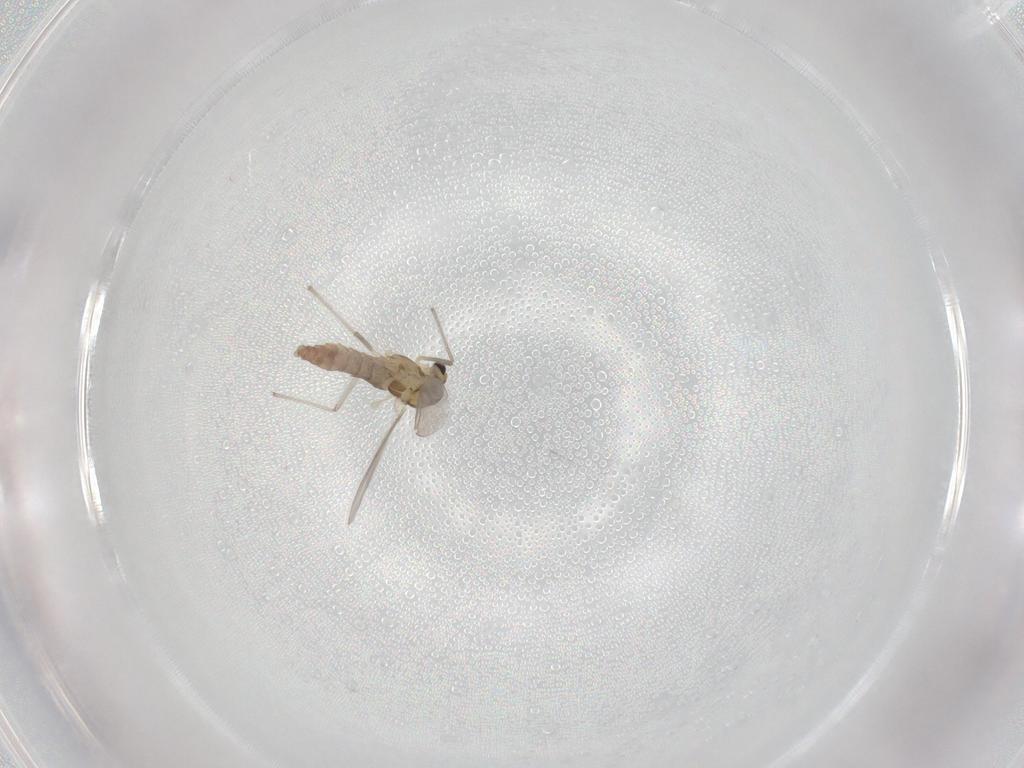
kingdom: Animalia
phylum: Arthropoda
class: Insecta
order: Diptera
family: Chironomidae
